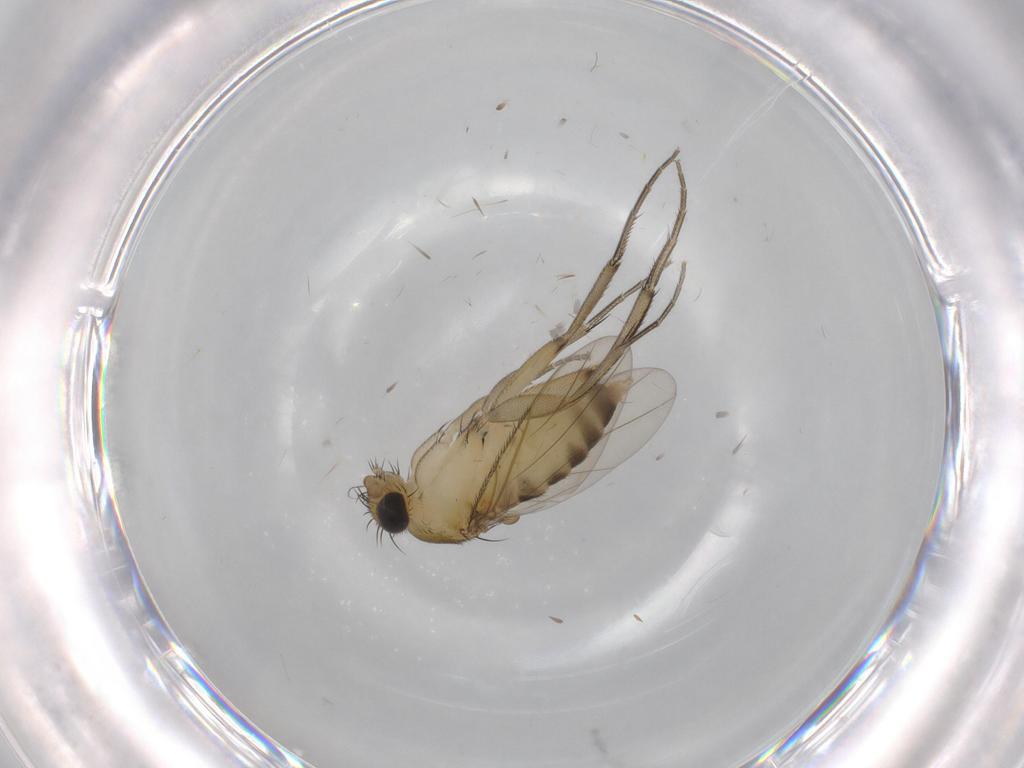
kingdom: Animalia
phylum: Arthropoda
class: Insecta
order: Diptera
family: Phoridae
